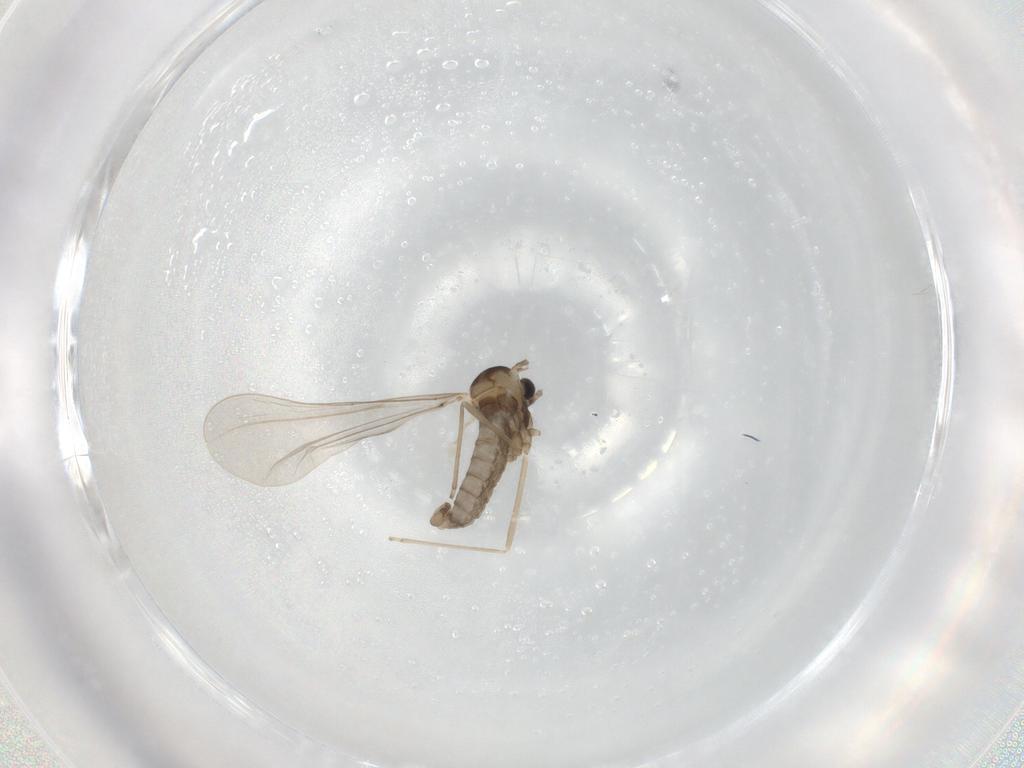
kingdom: Animalia
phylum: Arthropoda
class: Insecta
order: Diptera
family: Cecidomyiidae
